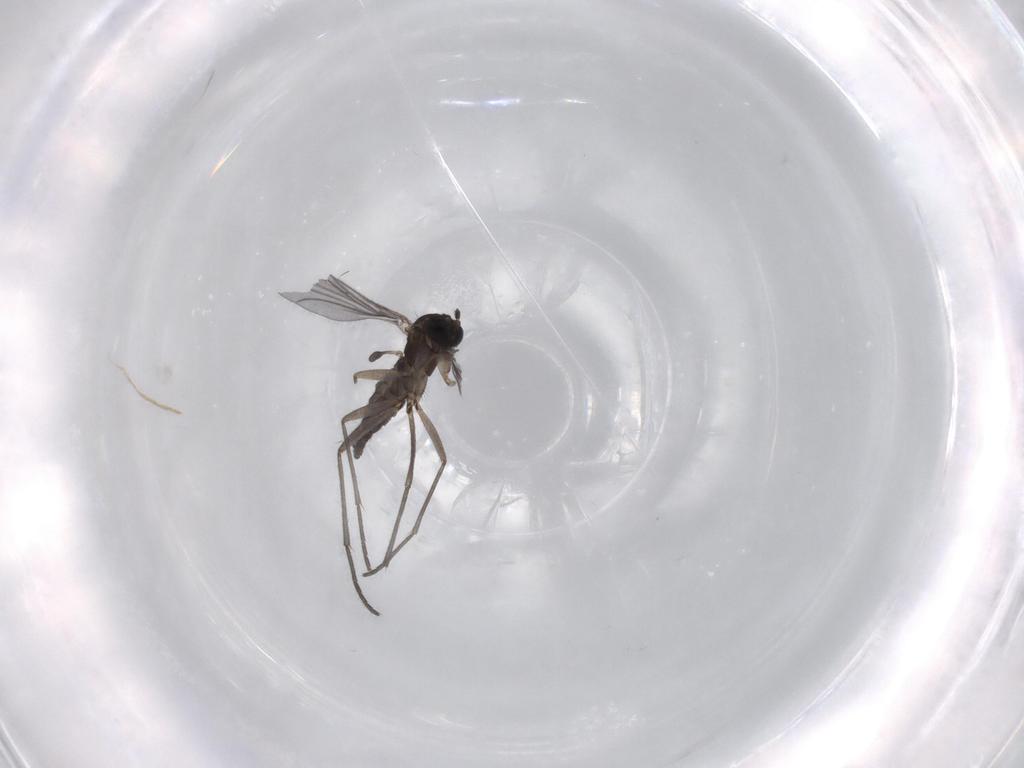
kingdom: Animalia
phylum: Arthropoda
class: Insecta
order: Diptera
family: Sciaridae
